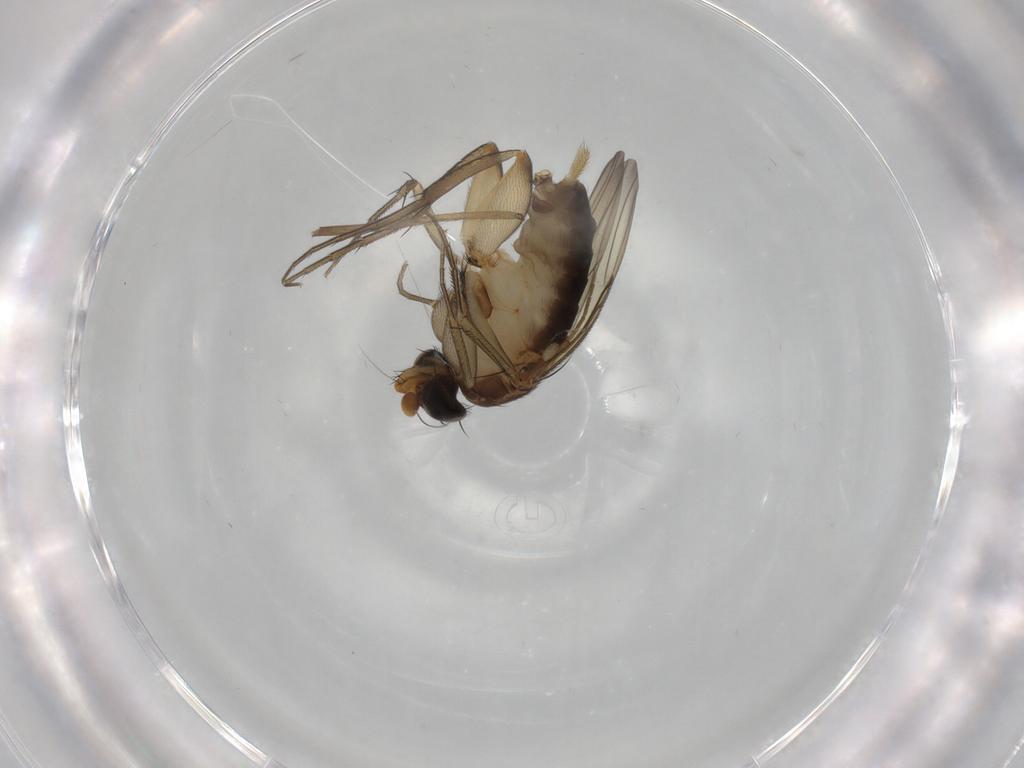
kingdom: Animalia
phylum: Arthropoda
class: Insecta
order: Diptera
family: Phoridae
